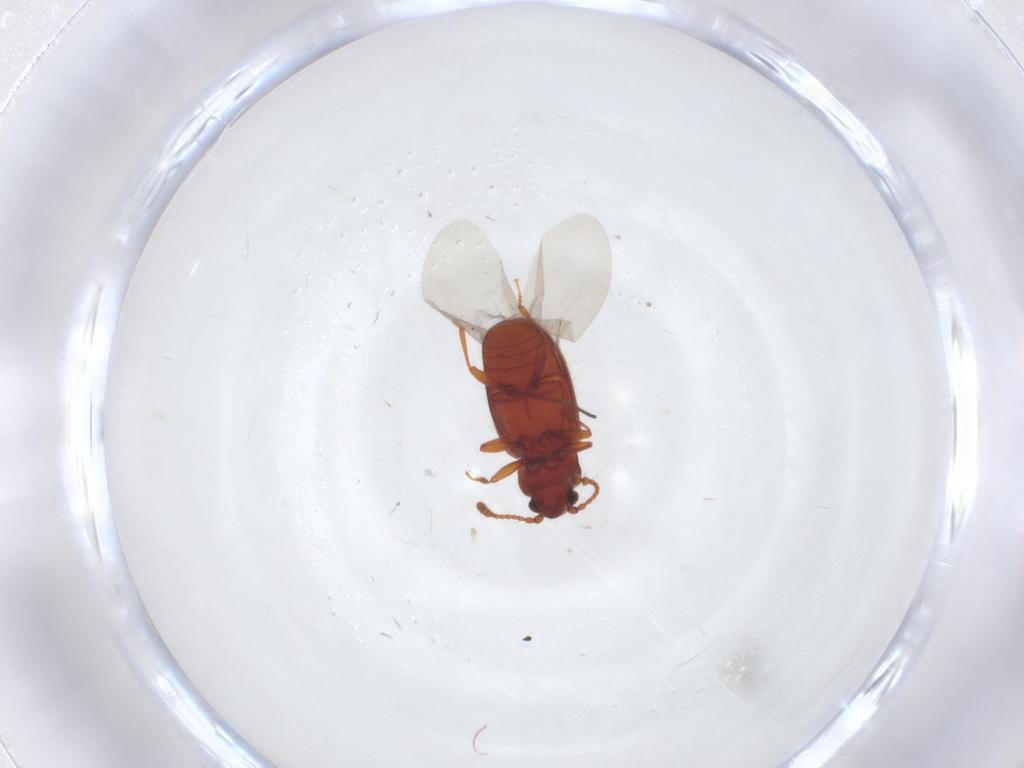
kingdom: Animalia
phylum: Arthropoda
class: Insecta
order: Coleoptera
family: Cryptophagidae
